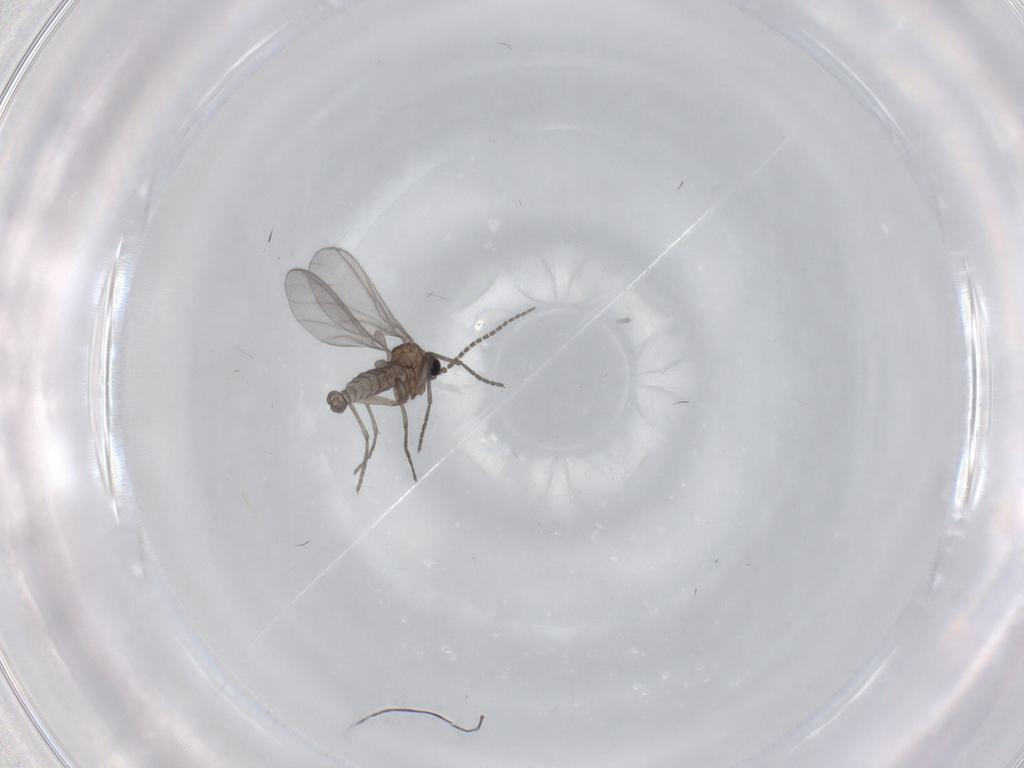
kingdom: Animalia
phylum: Arthropoda
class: Insecta
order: Diptera
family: Sciaridae
